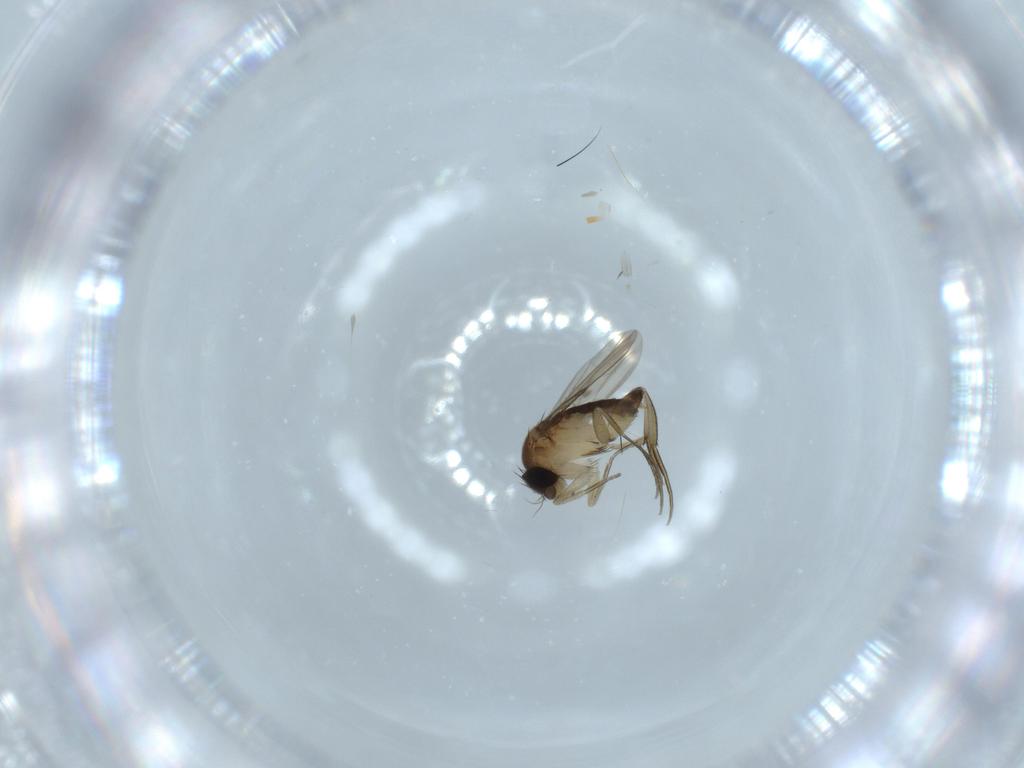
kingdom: Animalia
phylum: Arthropoda
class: Insecta
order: Diptera
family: Phoridae
